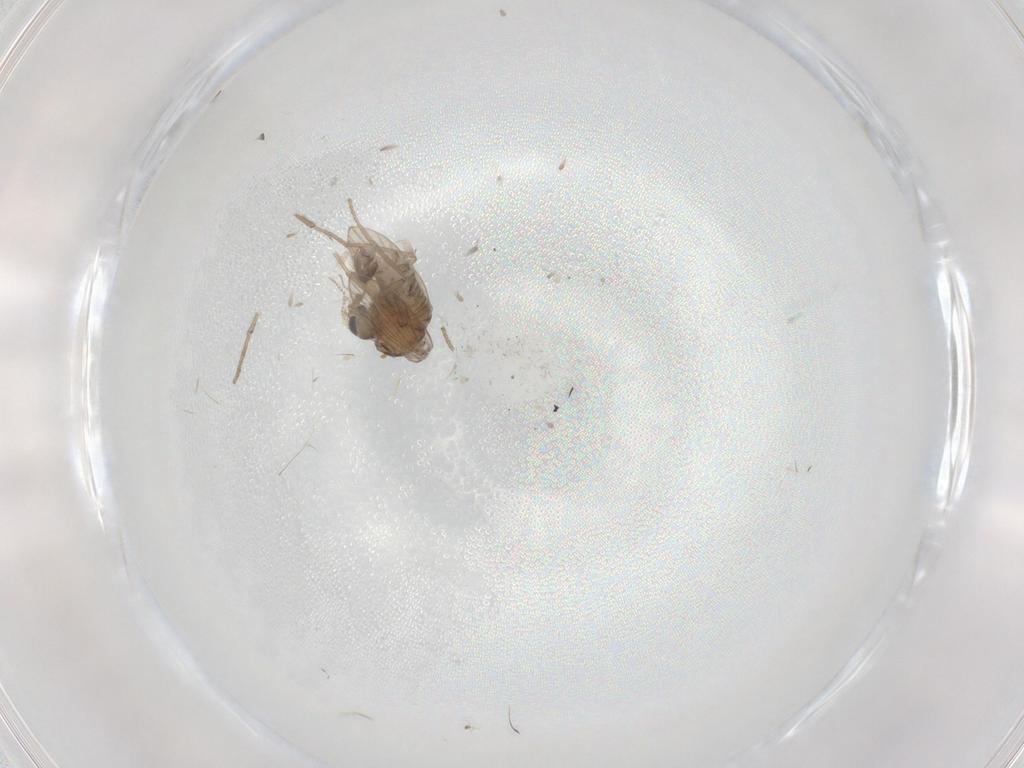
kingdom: Animalia
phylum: Arthropoda
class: Insecta
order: Diptera
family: Psychodidae
